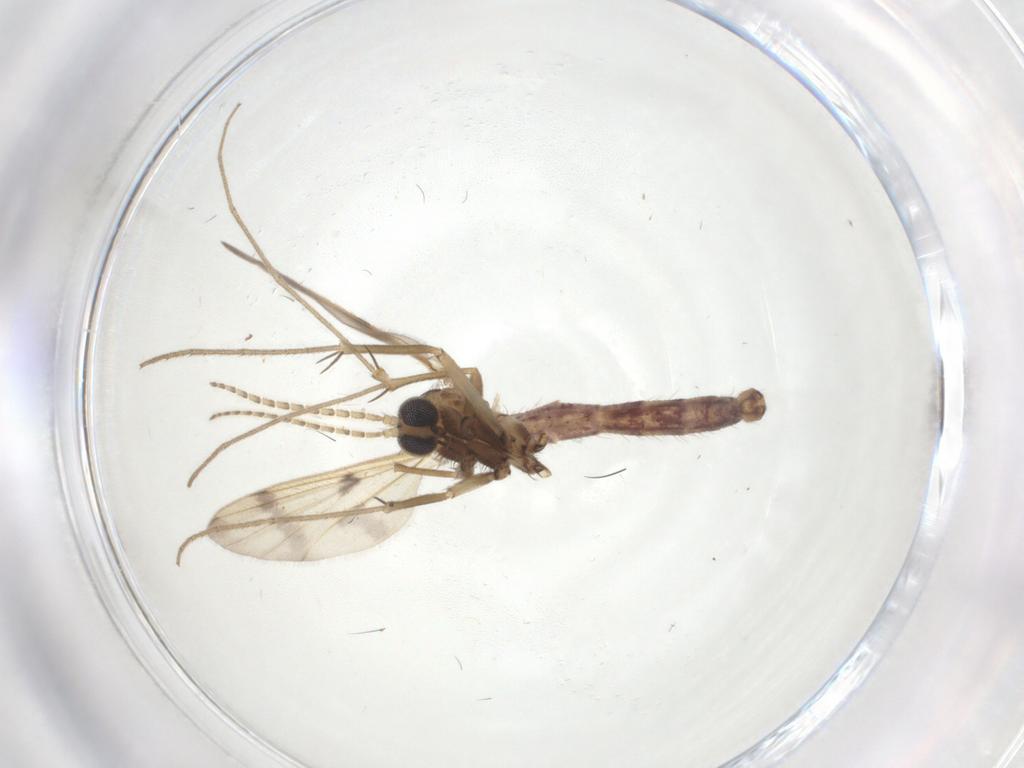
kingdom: Animalia
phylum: Arthropoda
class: Insecta
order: Diptera
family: Mycetophilidae
